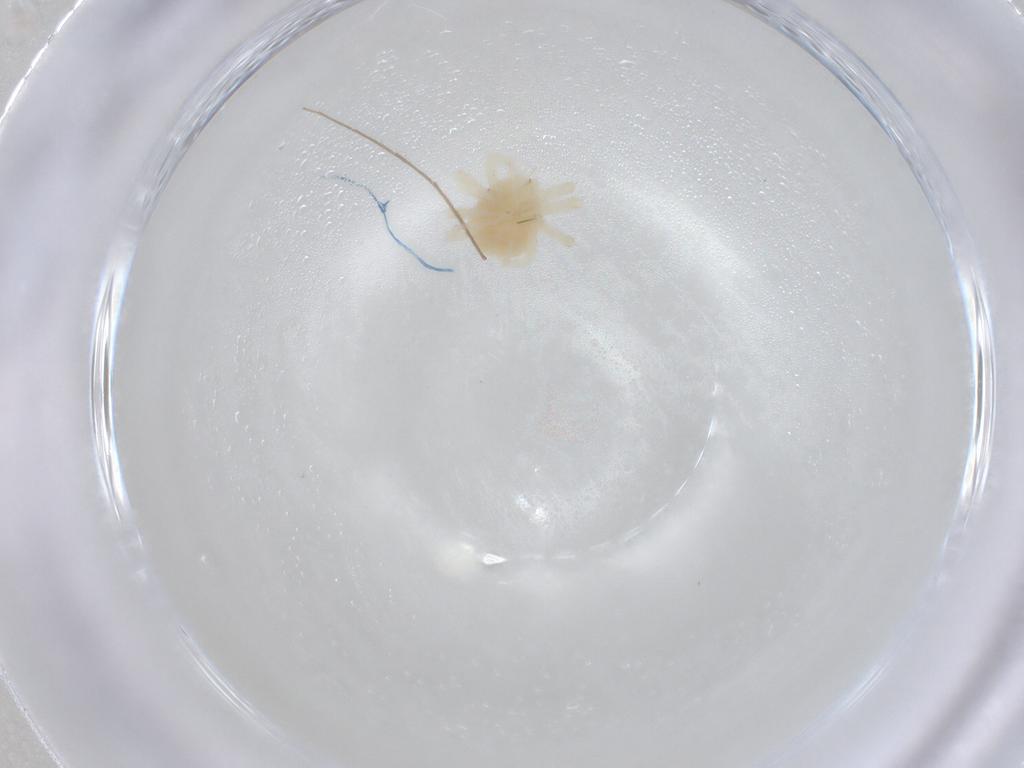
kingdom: Animalia
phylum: Arthropoda
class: Arachnida
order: Trombidiformes
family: Anystidae
